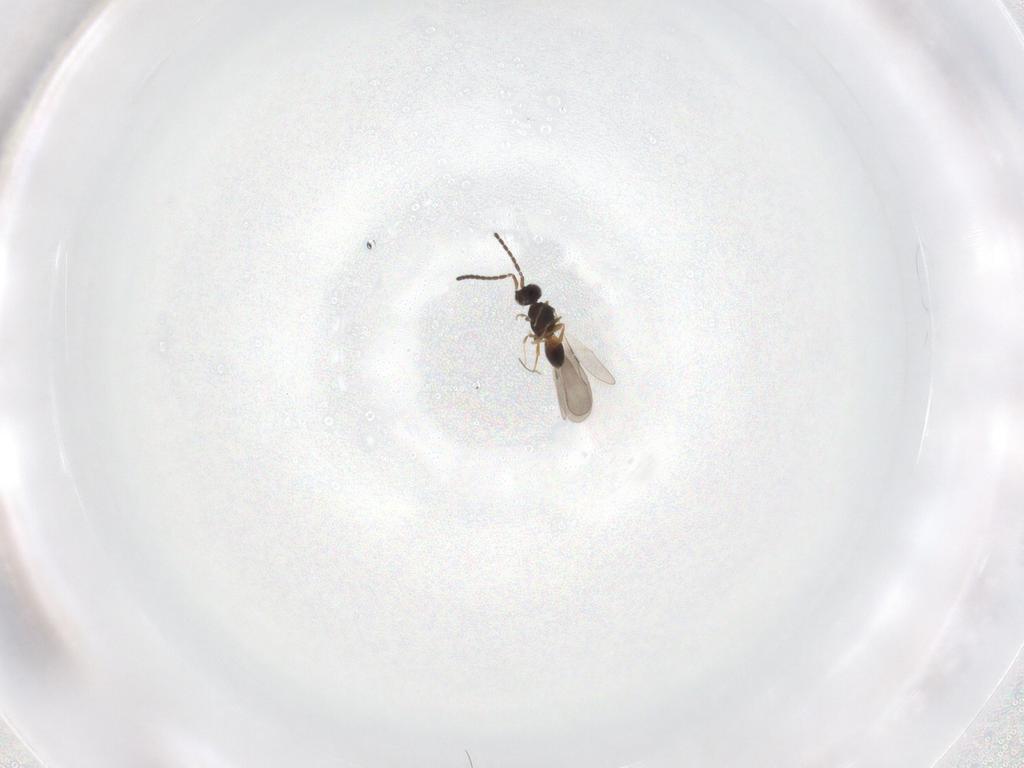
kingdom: Animalia
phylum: Arthropoda
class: Insecta
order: Hymenoptera
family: Ceraphronidae
